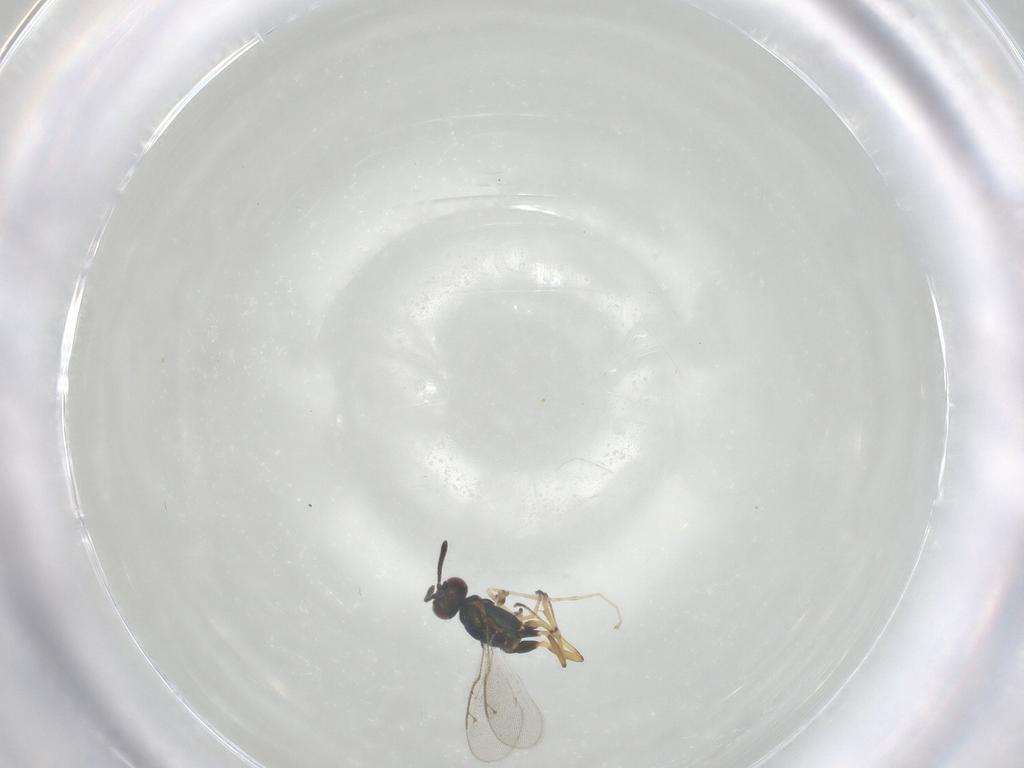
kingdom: Animalia
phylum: Arthropoda
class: Insecta
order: Hymenoptera
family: Eupelmidae
